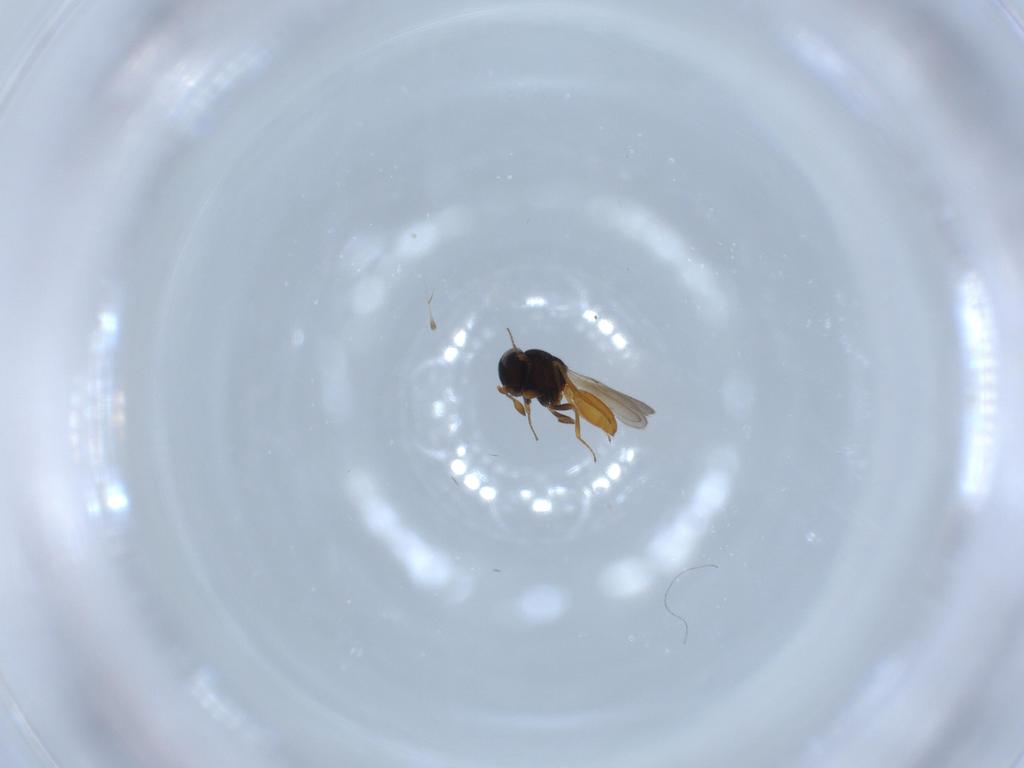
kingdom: Animalia
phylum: Arthropoda
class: Insecta
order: Hymenoptera
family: Scelionidae
